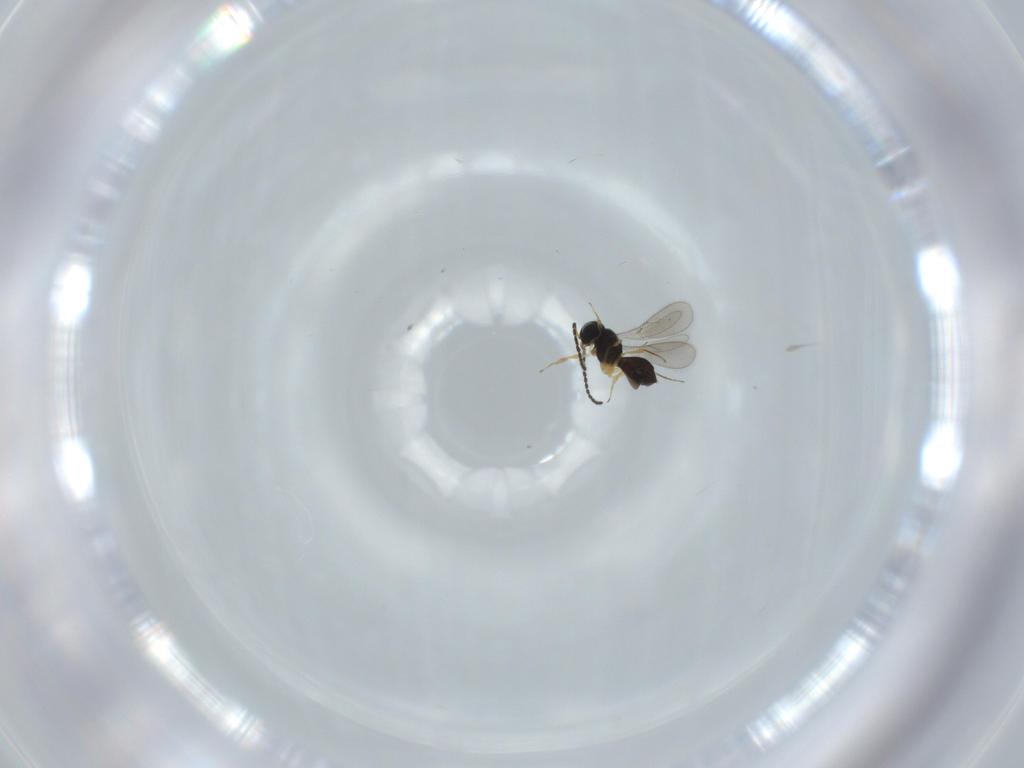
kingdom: Animalia
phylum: Arthropoda
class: Insecta
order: Hymenoptera
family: Scelionidae
